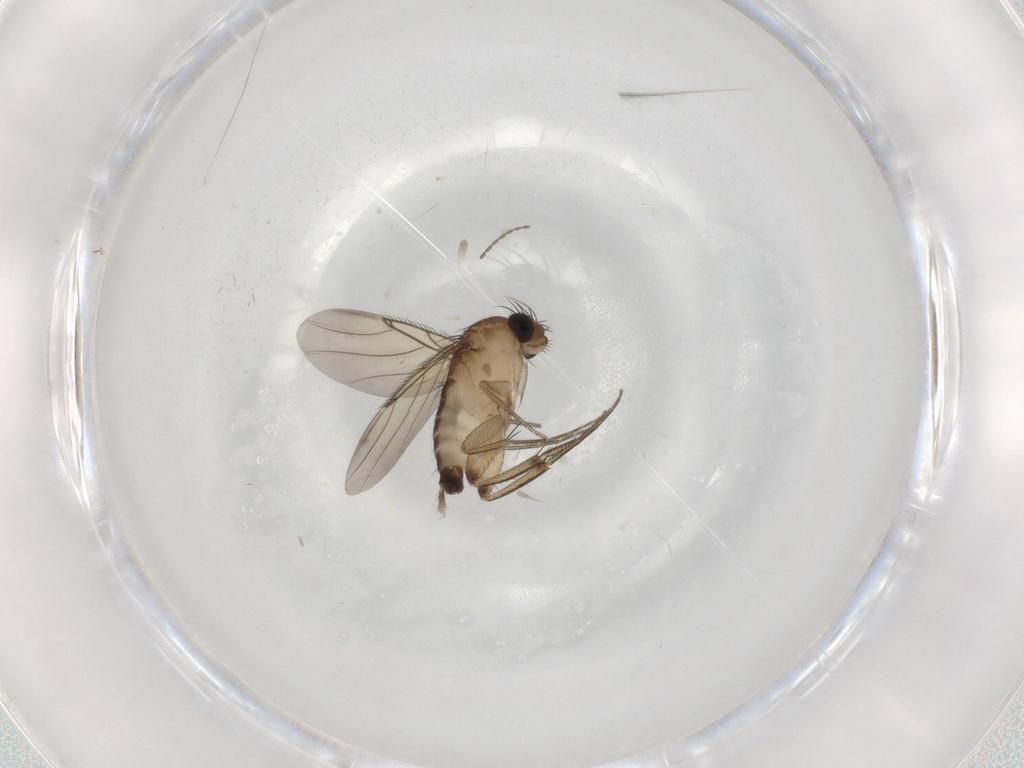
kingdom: Animalia
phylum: Arthropoda
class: Insecta
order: Diptera
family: Phoridae
